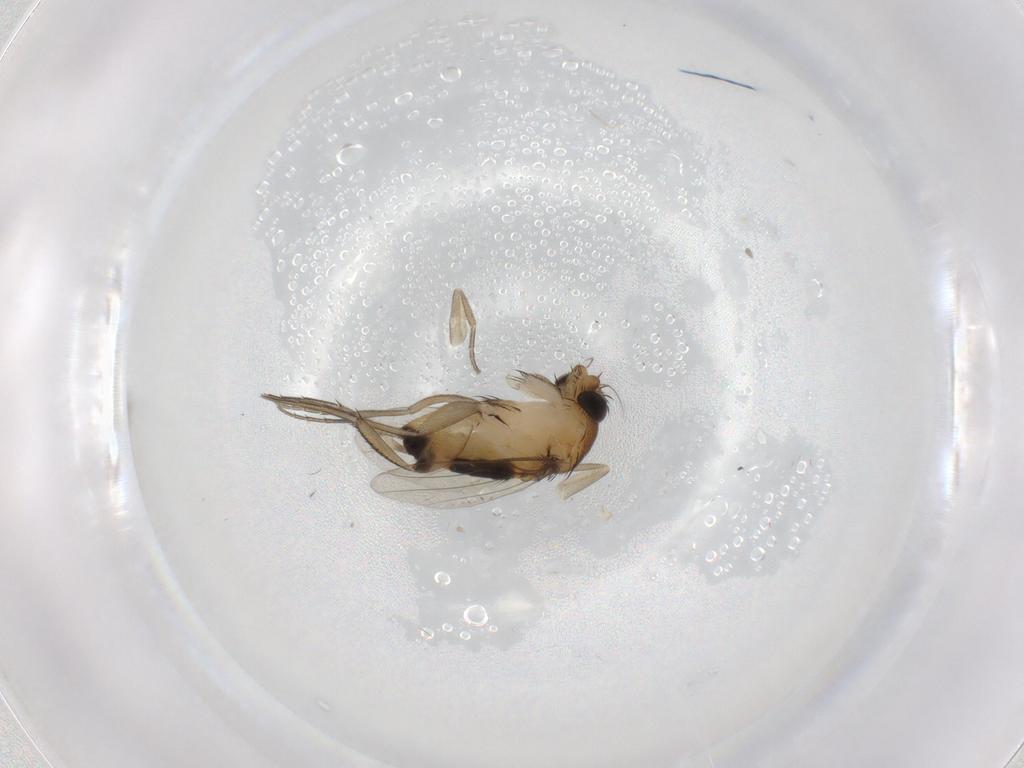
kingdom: Animalia
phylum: Arthropoda
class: Insecta
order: Diptera
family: Phoridae
